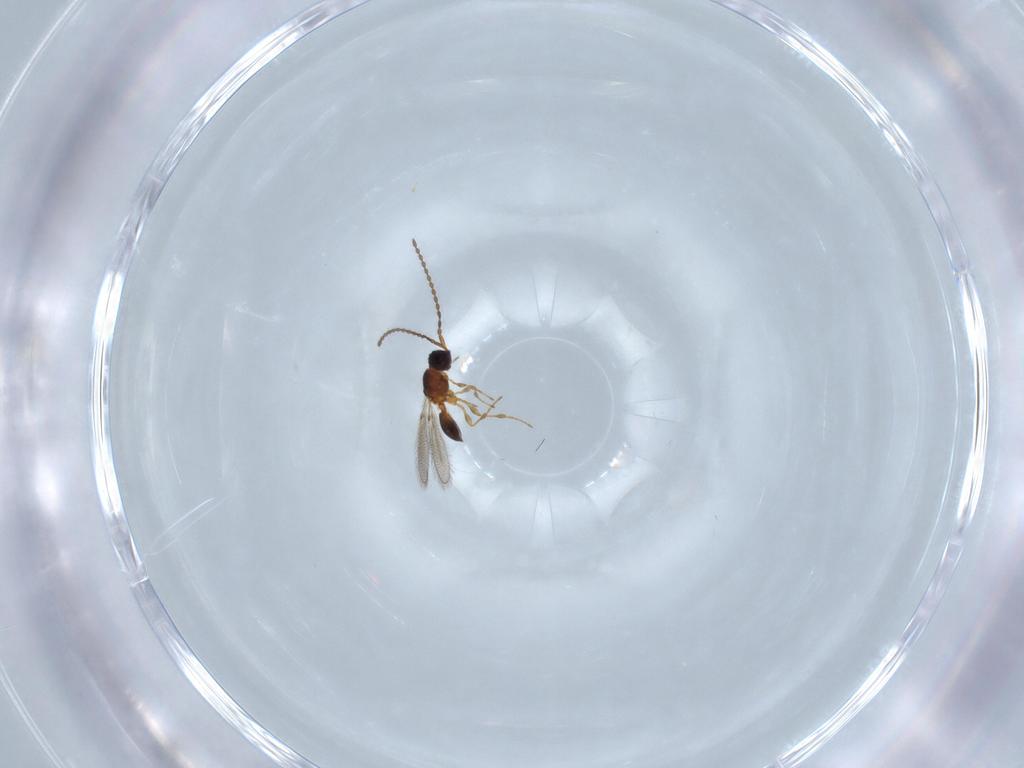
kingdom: Animalia
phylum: Arthropoda
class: Insecta
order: Hymenoptera
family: Diapriidae
